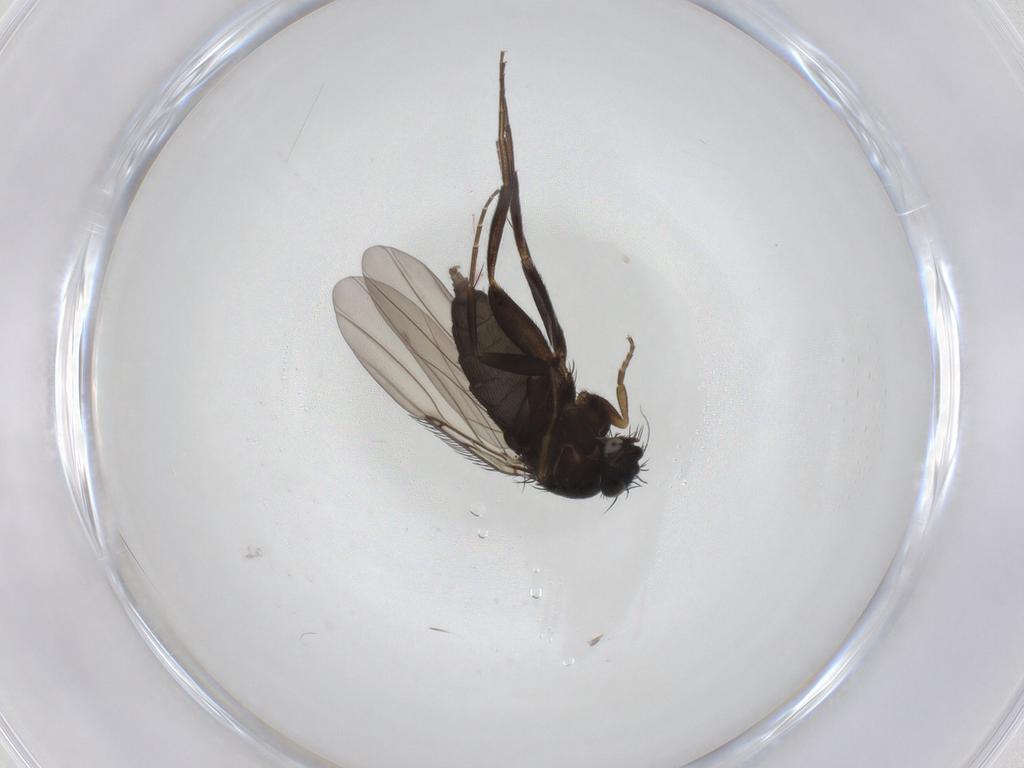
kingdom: Animalia
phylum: Arthropoda
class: Insecta
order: Diptera
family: Phoridae
